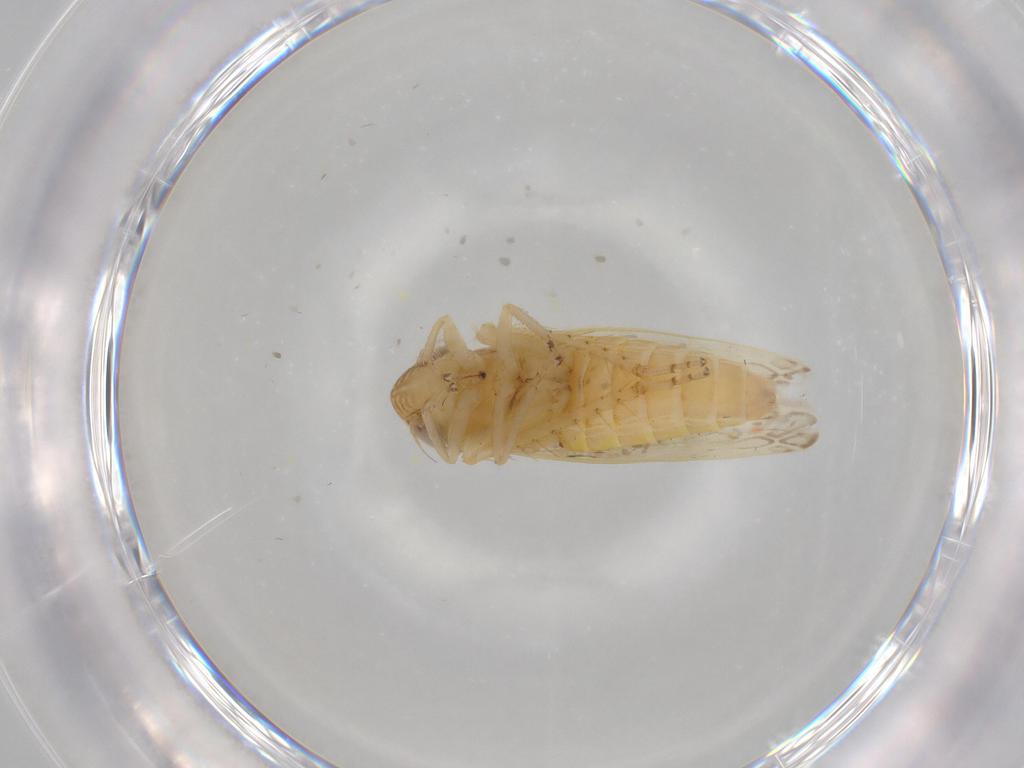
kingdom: Animalia
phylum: Arthropoda
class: Insecta
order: Hemiptera
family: Cicadellidae
